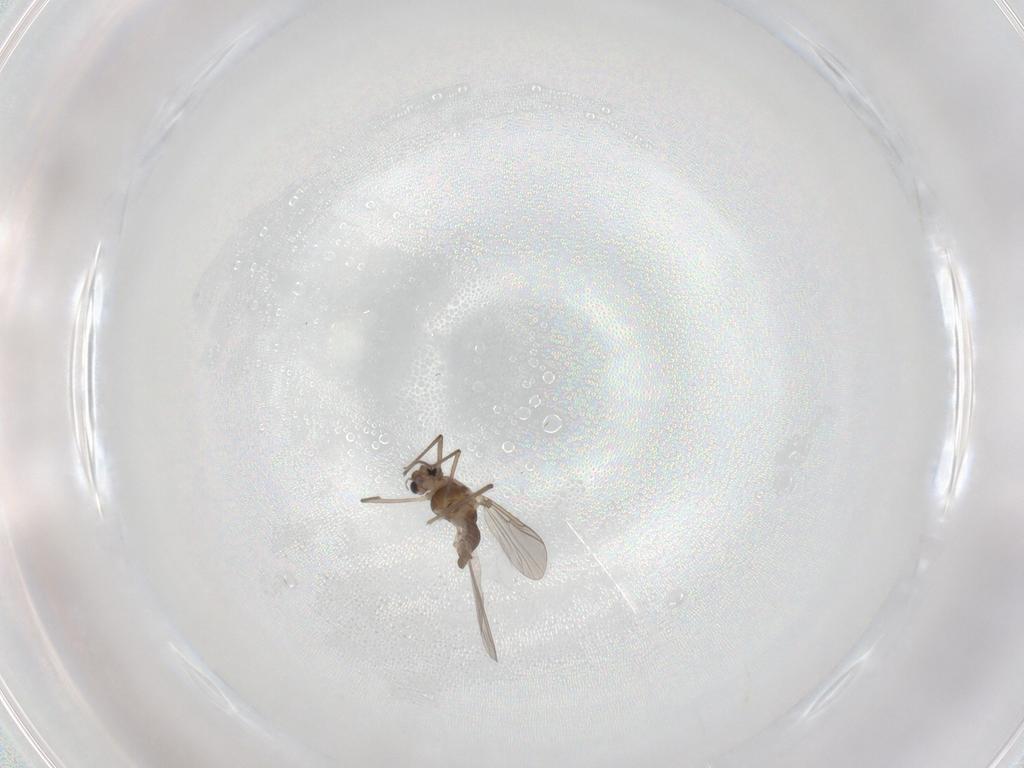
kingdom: Animalia
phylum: Arthropoda
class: Insecta
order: Diptera
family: Chironomidae
